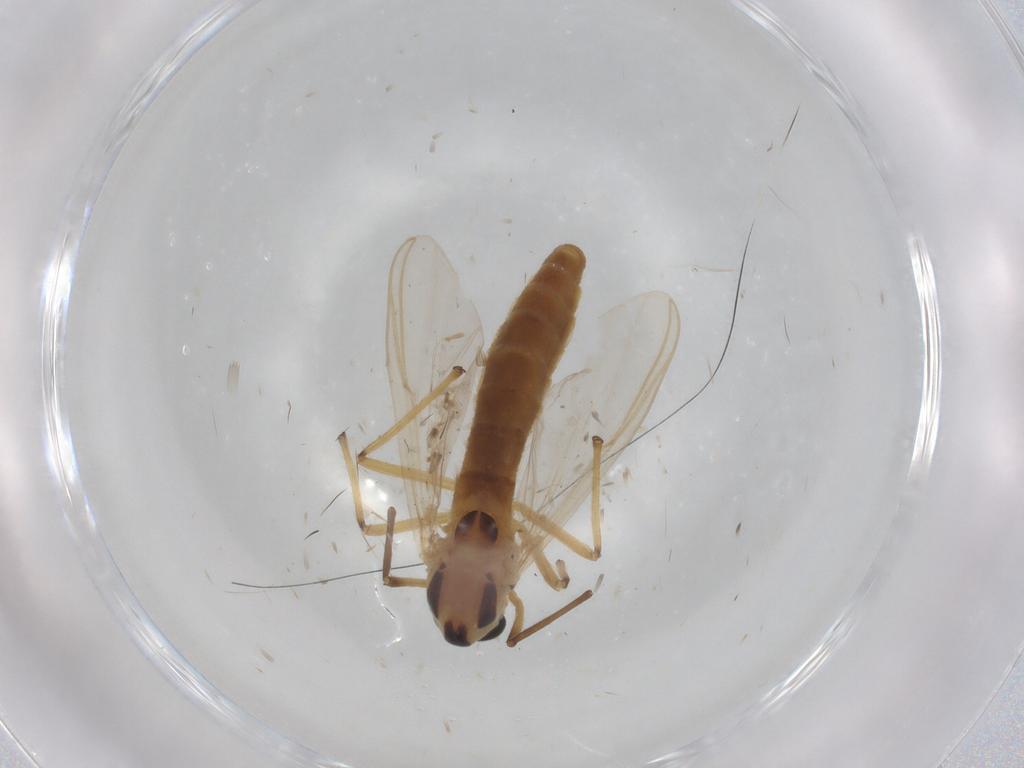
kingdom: Animalia
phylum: Arthropoda
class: Insecta
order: Diptera
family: Chironomidae
